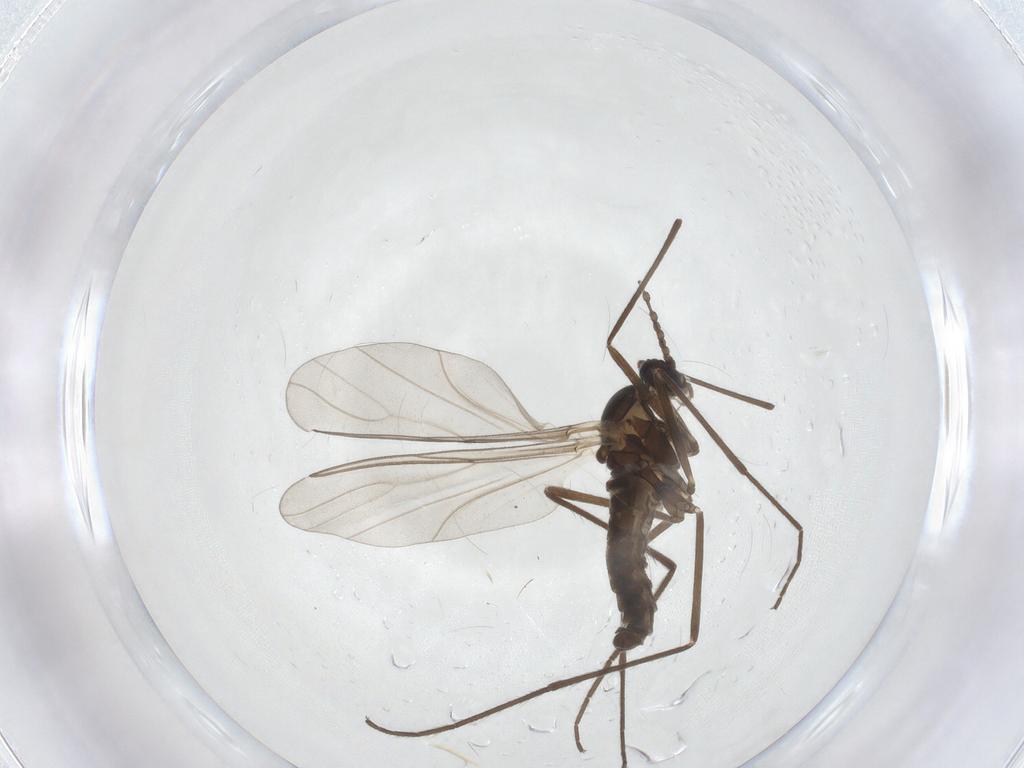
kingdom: Animalia
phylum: Arthropoda
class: Insecta
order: Diptera
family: Cecidomyiidae
